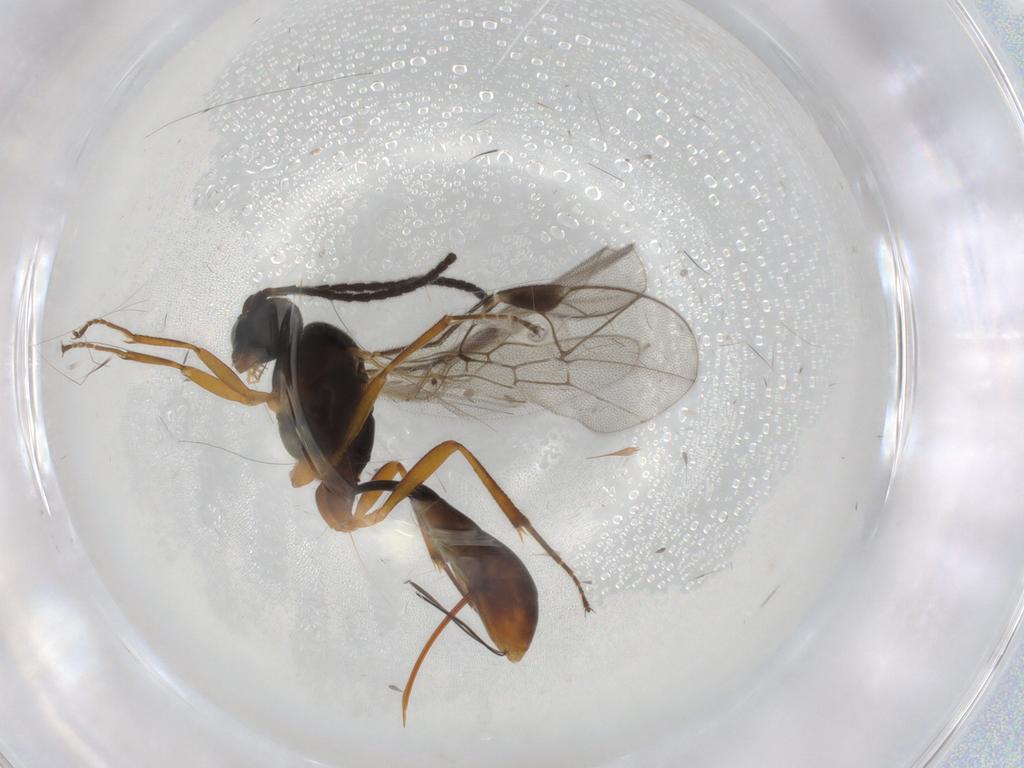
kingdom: Animalia
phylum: Arthropoda
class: Insecta
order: Hymenoptera
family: Ichneumonidae
